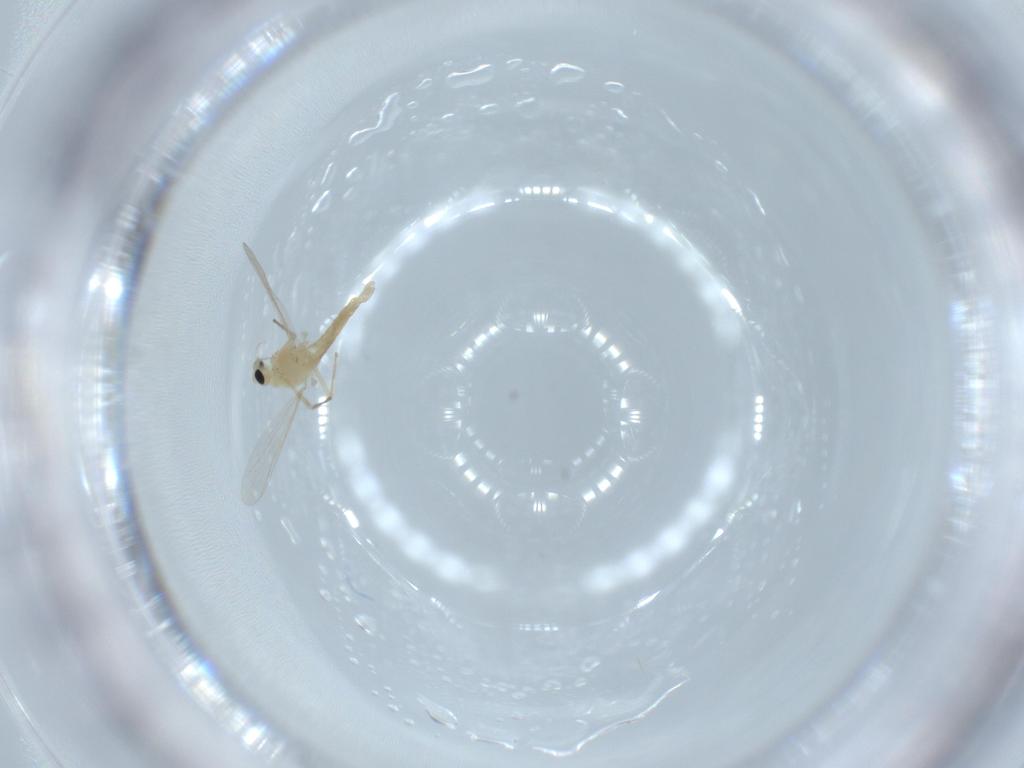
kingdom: Animalia
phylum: Arthropoda
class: Insecta
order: Diptera
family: Chironomidae
